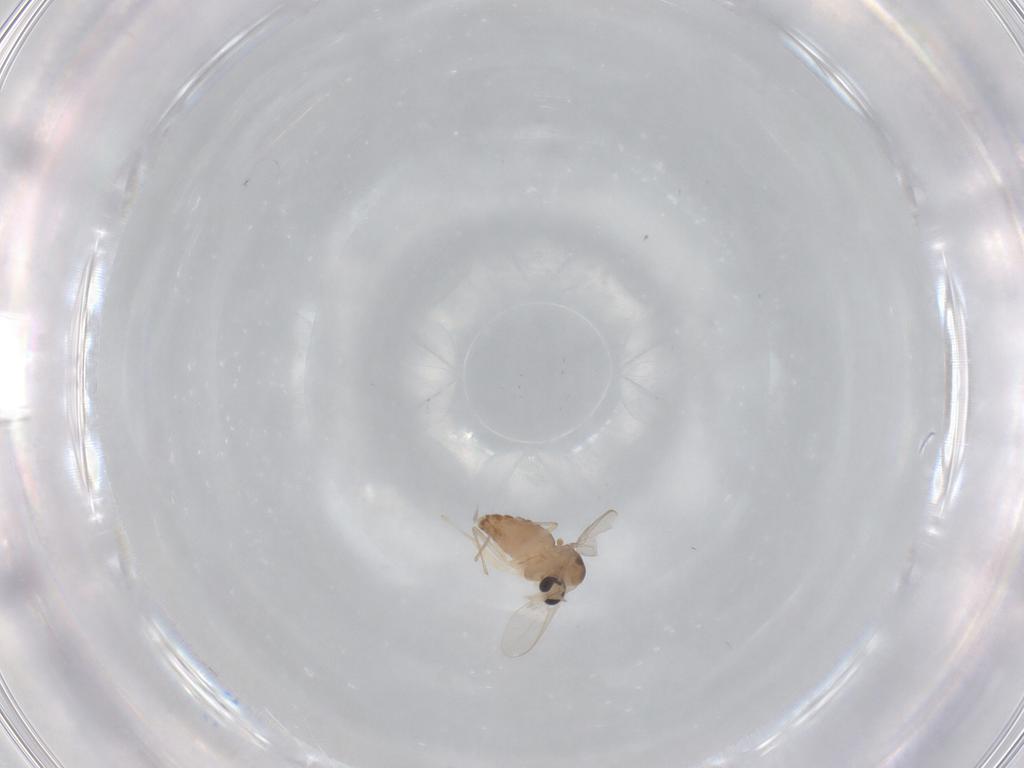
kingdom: Animalia
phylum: Arthropoda
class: Insecta
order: Diptera
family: Chironomidae
